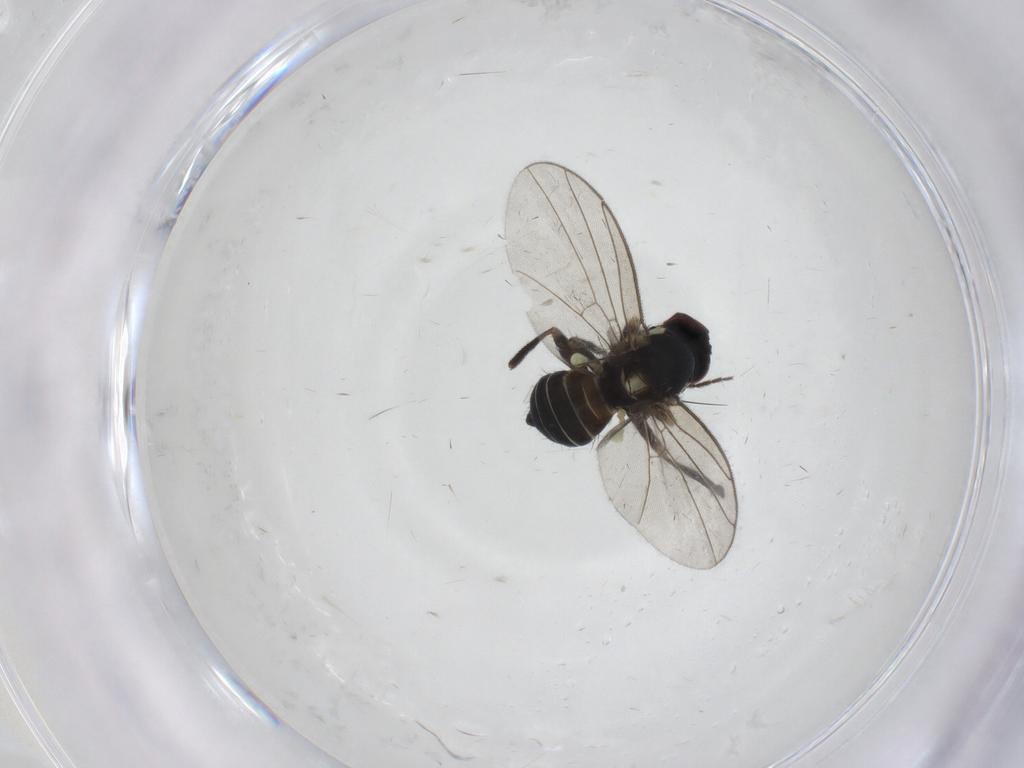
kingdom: Animalia
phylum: Arthropoda
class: Insecta
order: Diptera
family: Agromyzidae
